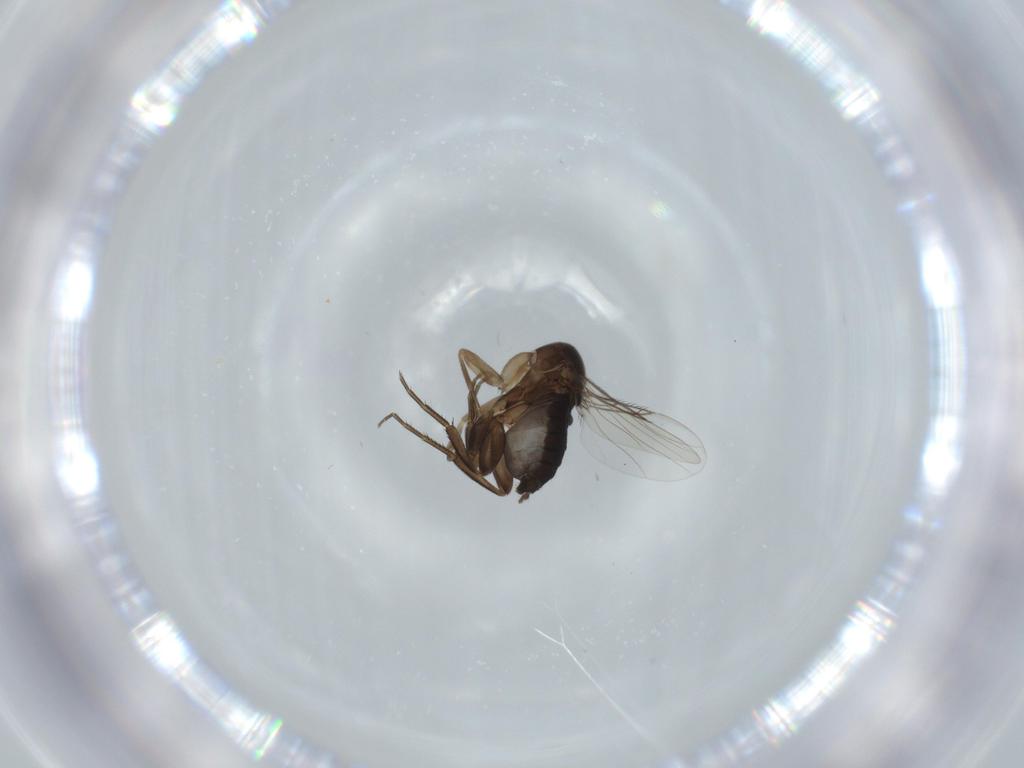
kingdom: Animalia
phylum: Arthropoda
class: Insecta
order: Diptera
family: Phoridae
